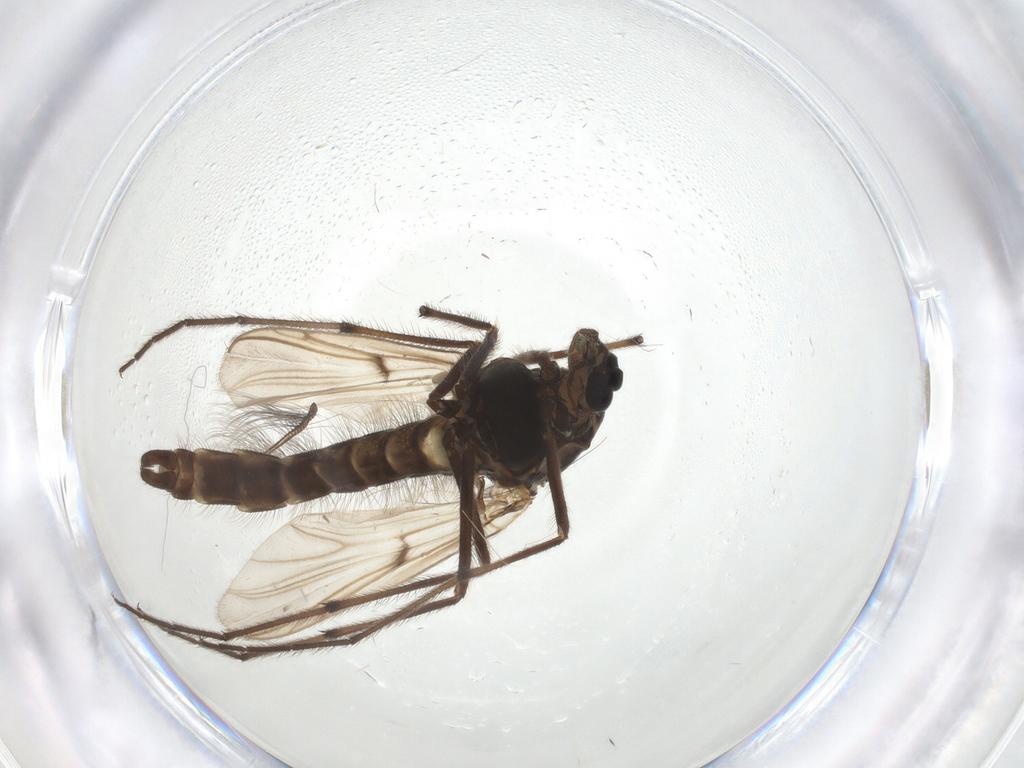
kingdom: Animalia
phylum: Arthropoda
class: Insecta
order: Diptera
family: Chironomidae
